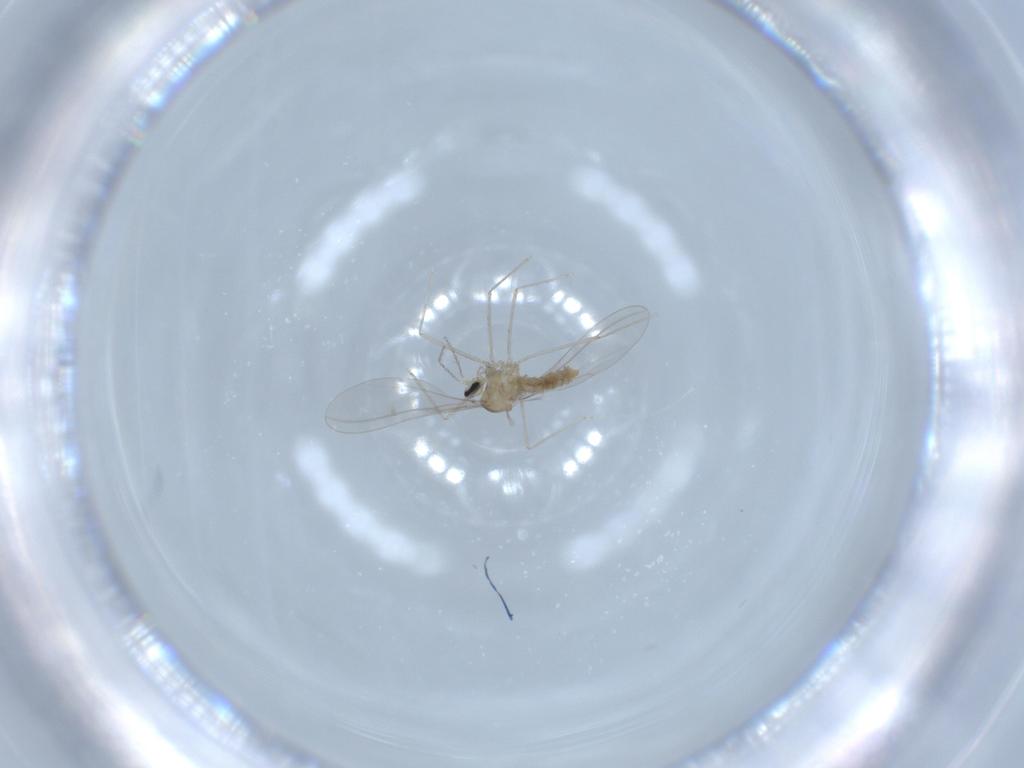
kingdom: Animalia
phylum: Arthropoda
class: Insecta
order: Diptera
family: Cecidomyiidae
